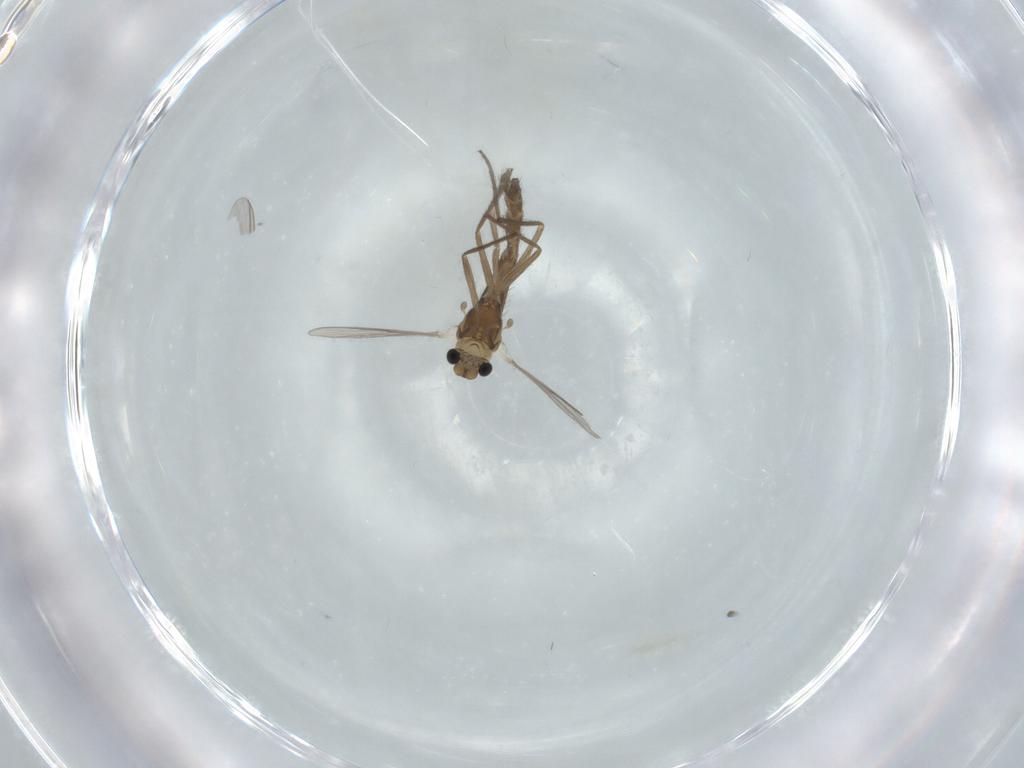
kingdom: Animalia
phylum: Arthropoda
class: Insecta
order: Diptera
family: Chironomidae
